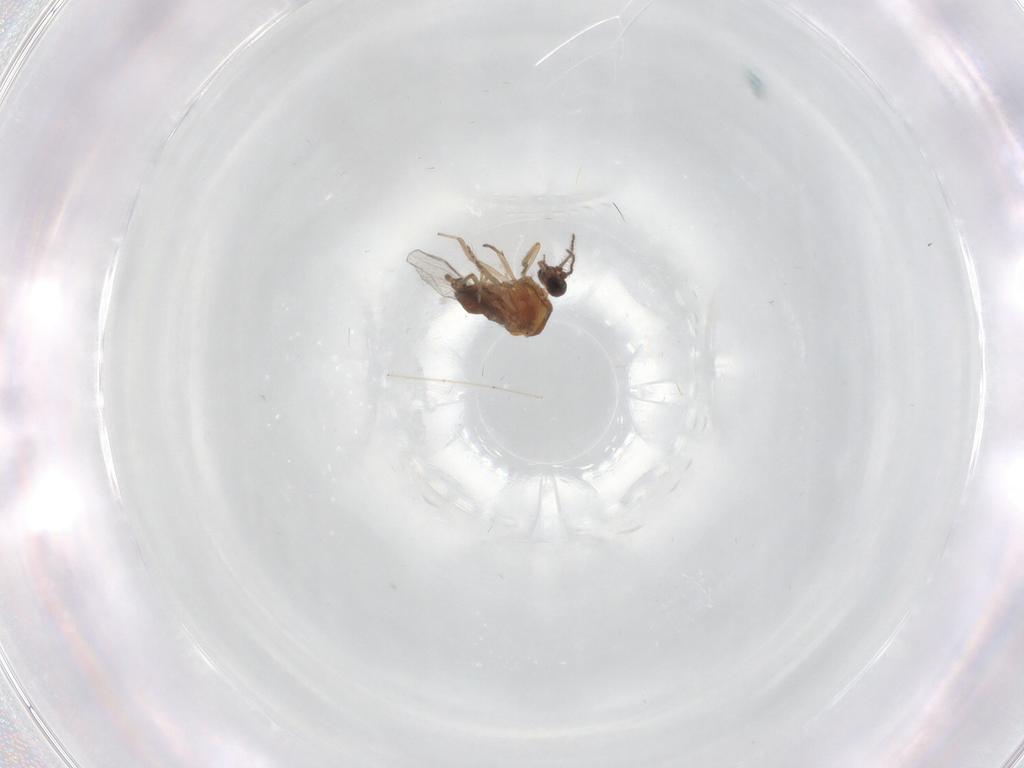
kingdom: Animalia
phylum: Arthropoda
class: Insecta
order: Diptera
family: Ceratopogonidae
